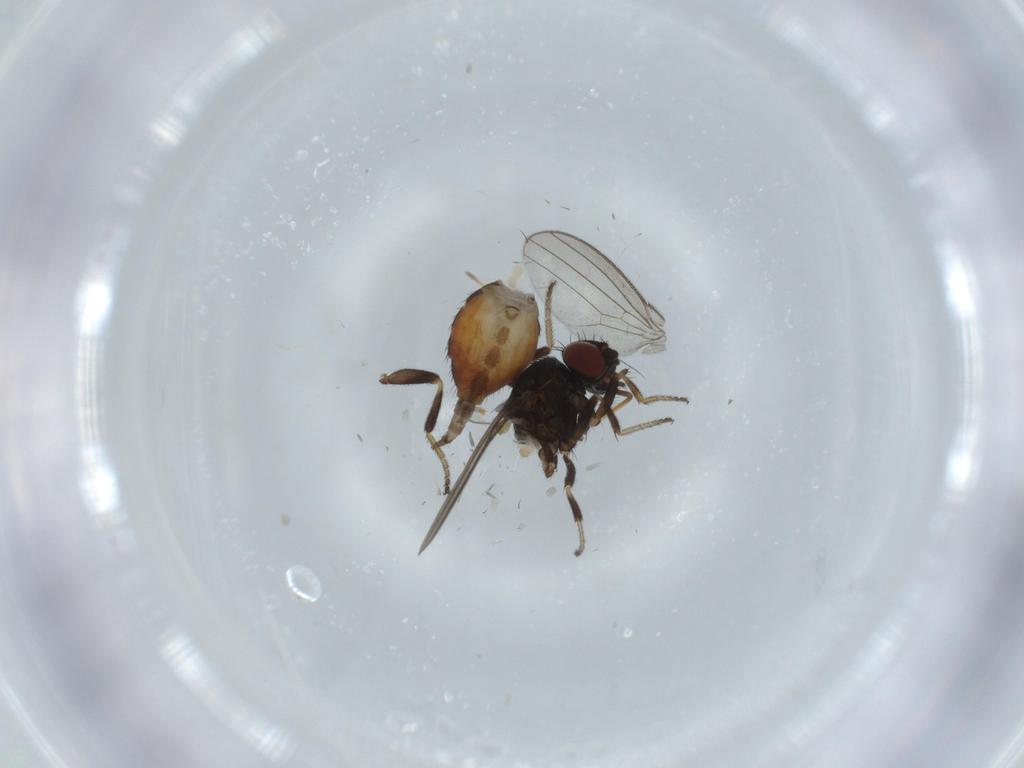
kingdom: Animalia
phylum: Arthropoda
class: Insecta
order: Diptera
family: Milichiidae
